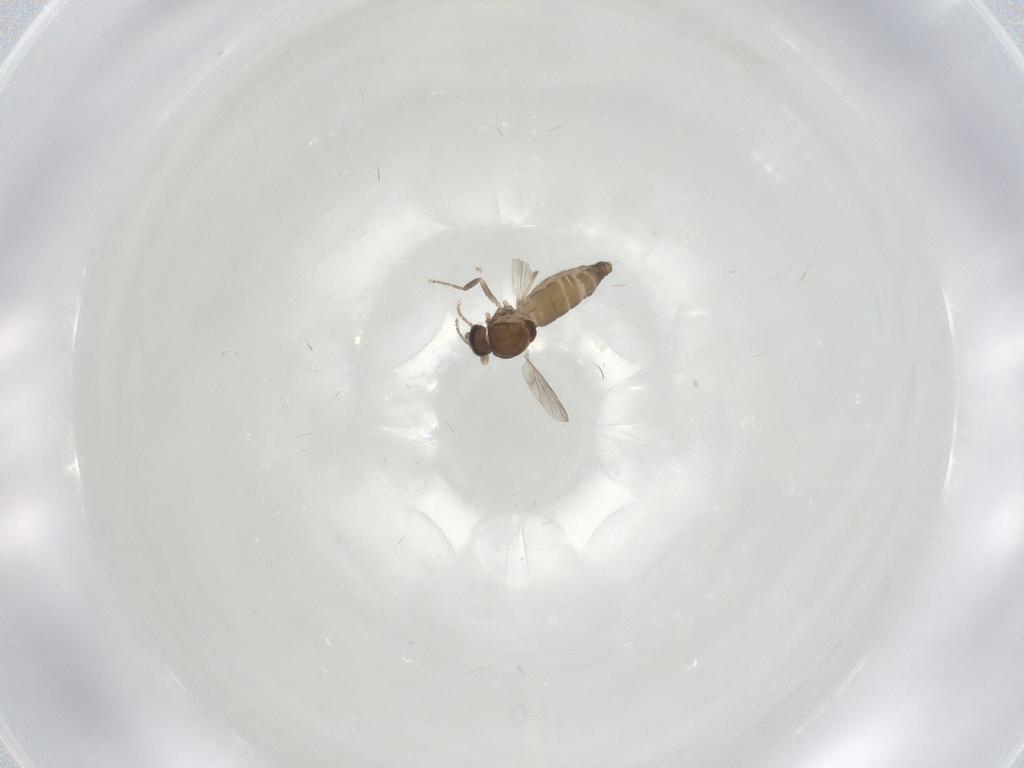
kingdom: Animalia
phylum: Arthropoda
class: Insecta
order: Diptera
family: Ceratopogonidae
